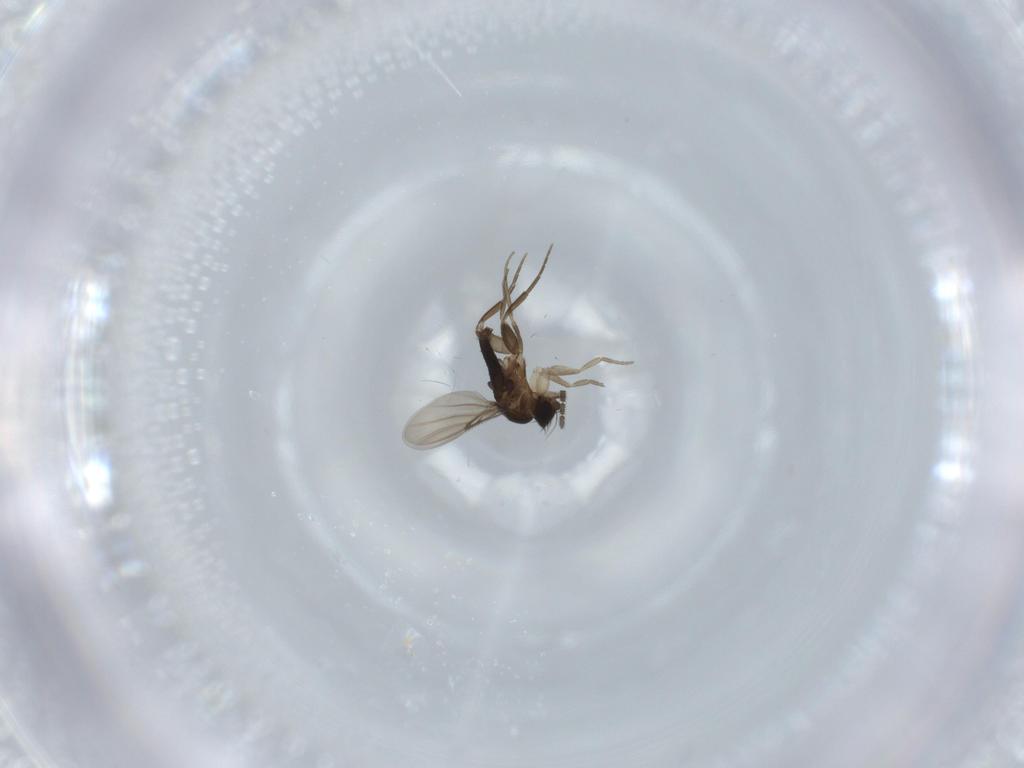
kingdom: Animalia
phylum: Arthropoda
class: Insecta
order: Diptera
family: Phoridae
